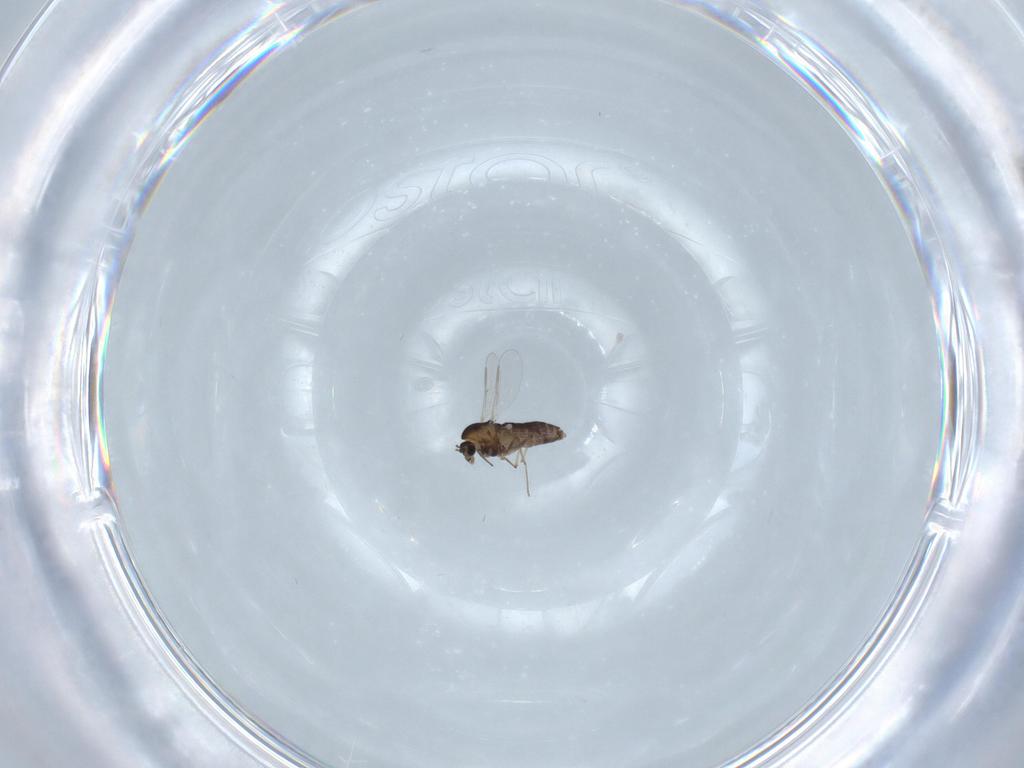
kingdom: Animalia
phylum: Arthropoda
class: Insecta
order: Diptera
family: Chironomidae
